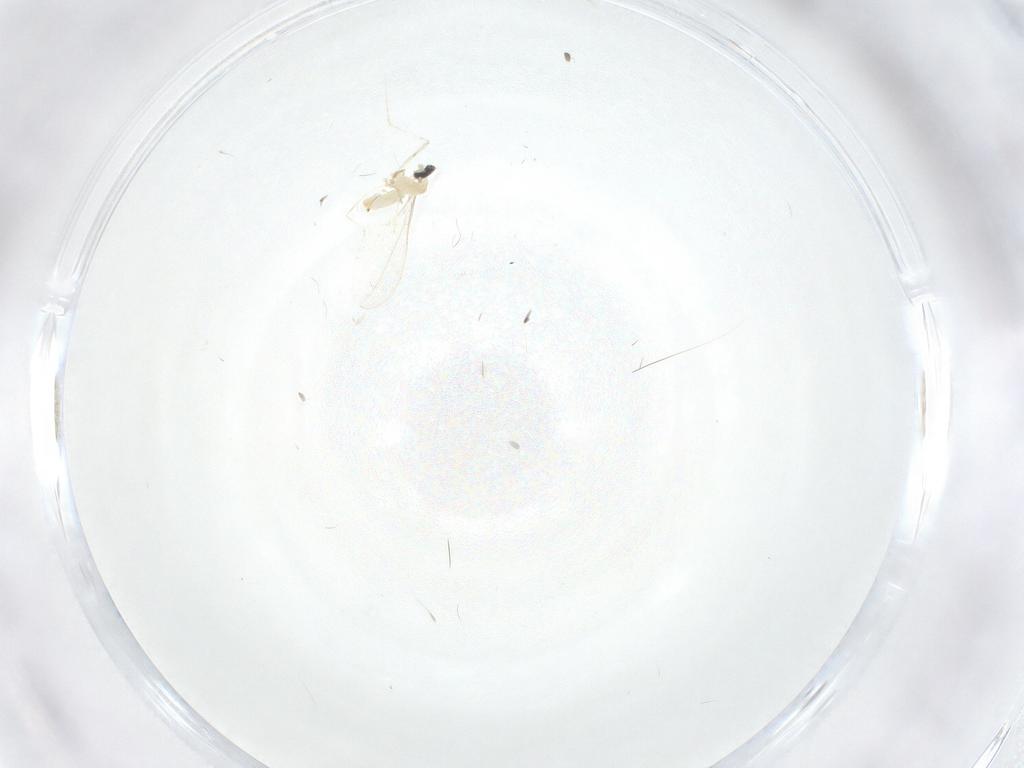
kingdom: Animalia
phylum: Arthropoda
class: Insecta
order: Diptera
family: Cecidomyiidae
